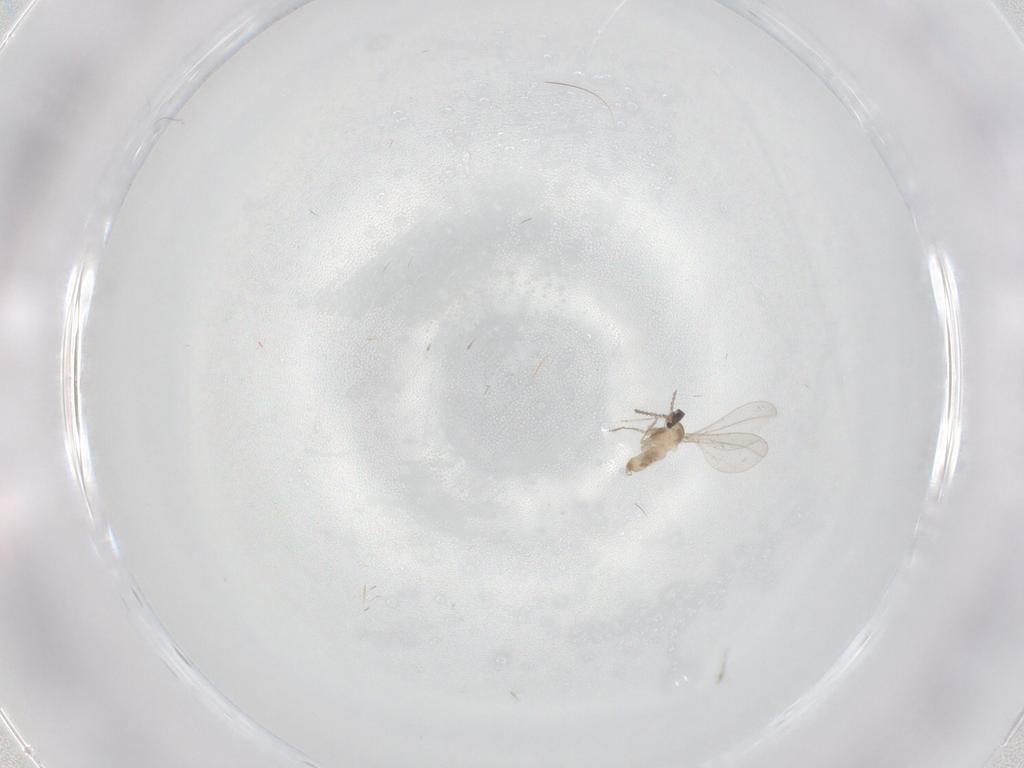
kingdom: Animalia
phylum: Arthropoda
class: Insecta
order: Diptera
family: Cecidomyiidae
